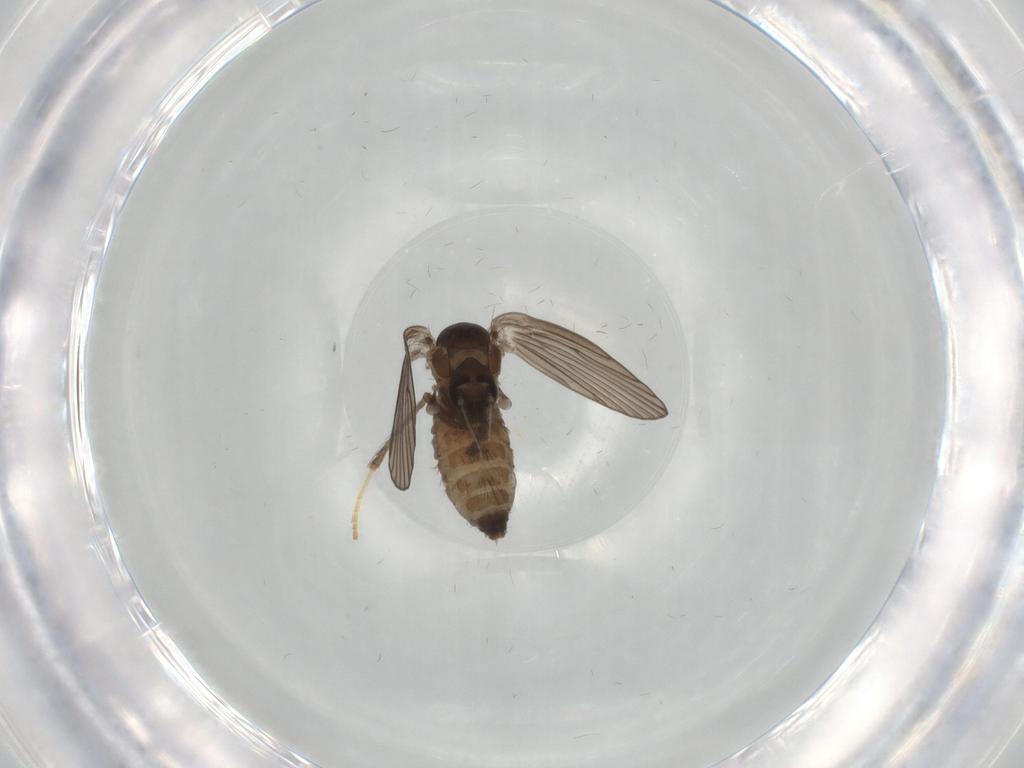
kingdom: Animalia
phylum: Arthropoda
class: Insecta
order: Diptera
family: Psychodidae
